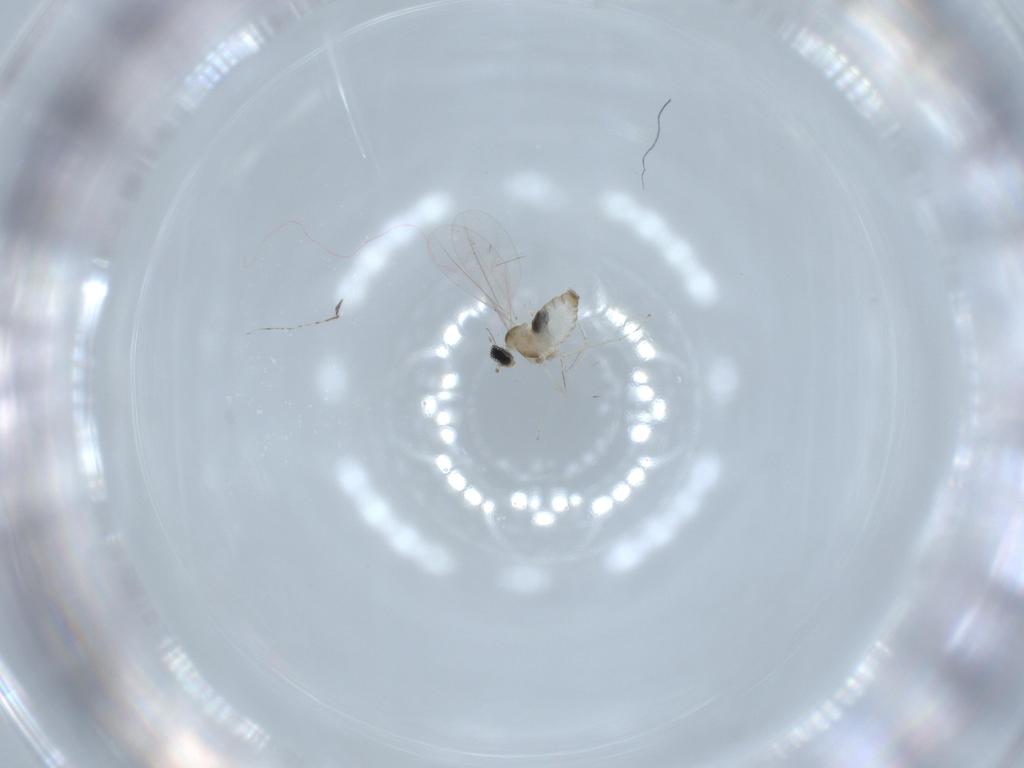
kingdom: Animalia
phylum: Arthropoda
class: Insecta
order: Diptera
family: Cecidomyiidae
